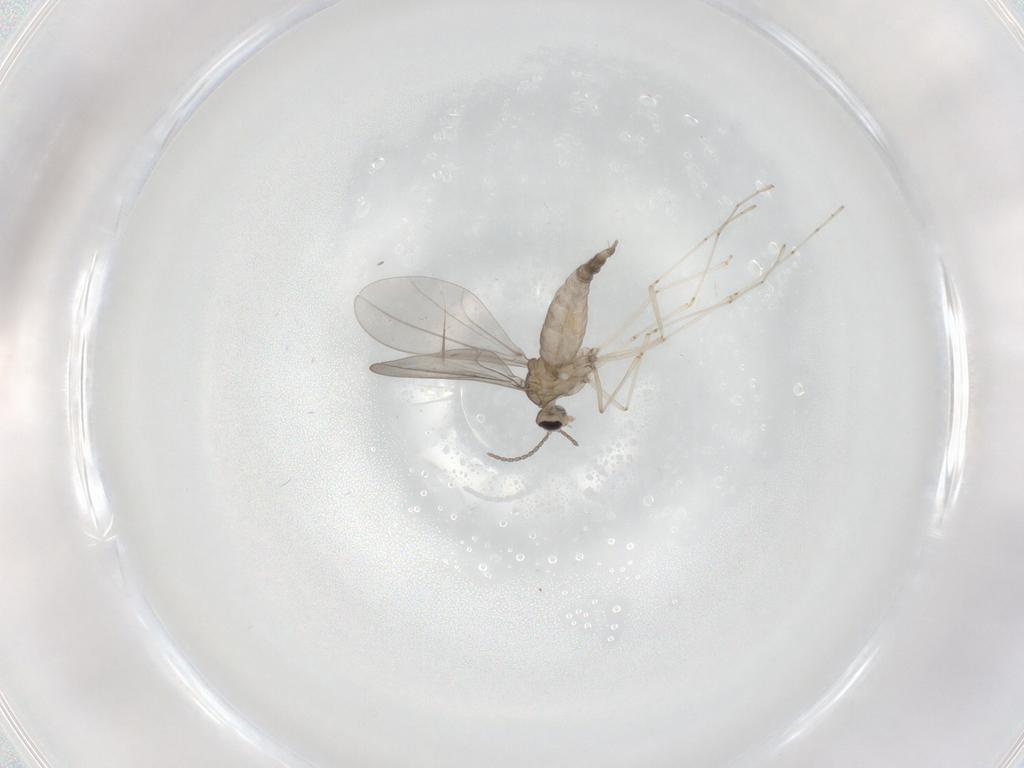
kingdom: Animalia
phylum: Arthropoda
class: Insecta
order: Diptera
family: Cecidomyiidae
